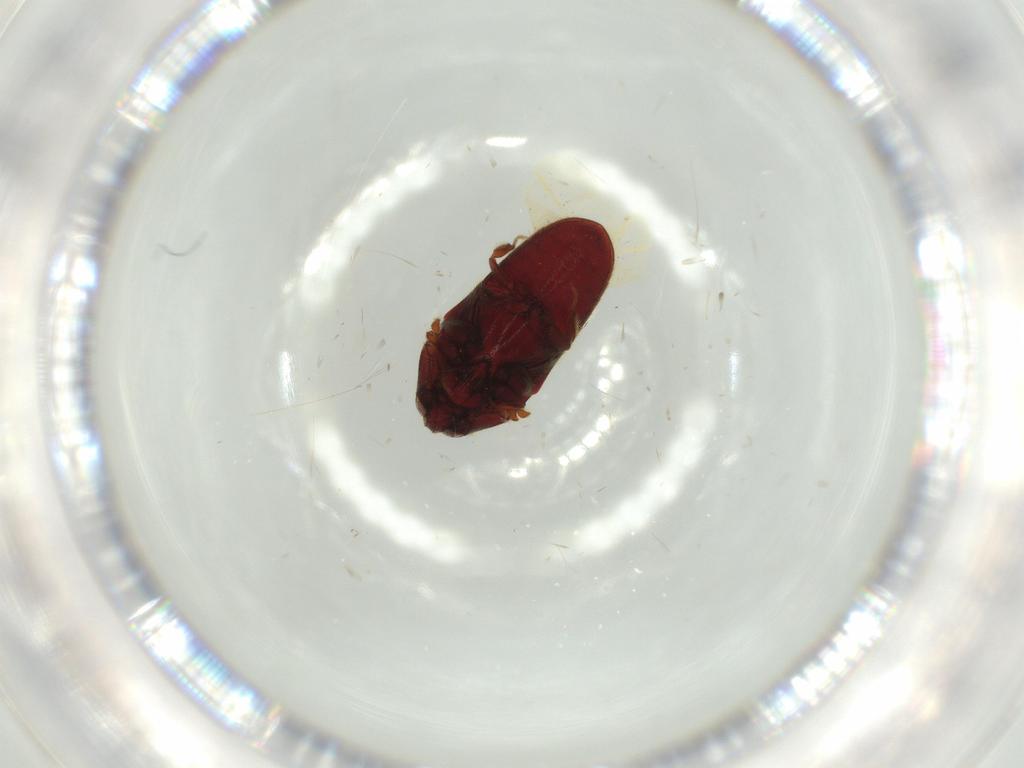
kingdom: Animalia
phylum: Arthropoda
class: Insecta
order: Coleoptera
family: Throscidae
